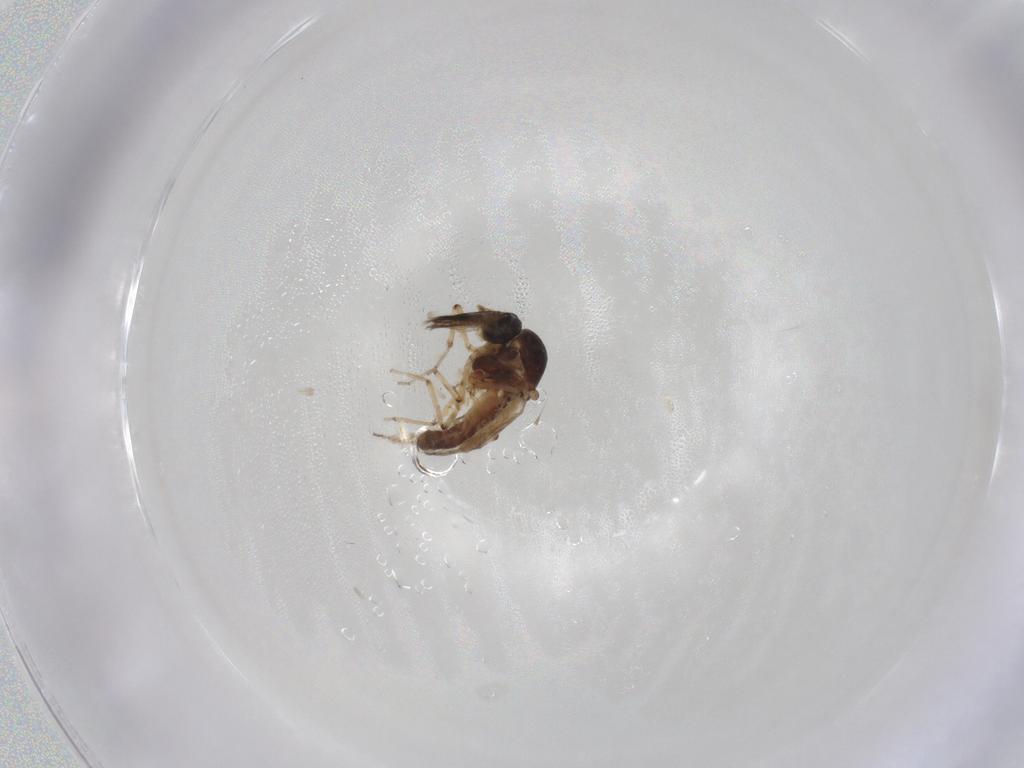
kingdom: Animalia
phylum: Arthropoda
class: Insecta
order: Diptera
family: Ceratopogonidae
